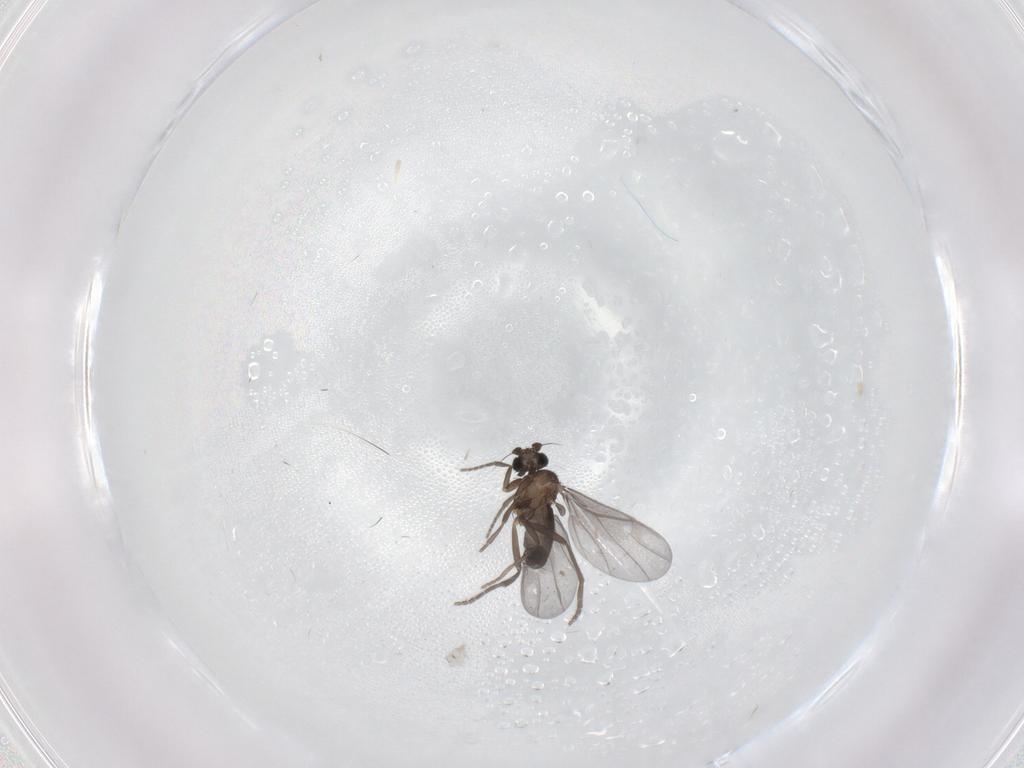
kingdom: Animalia
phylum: Arthropoda
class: Insecta
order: Diptera
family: Phoridae
